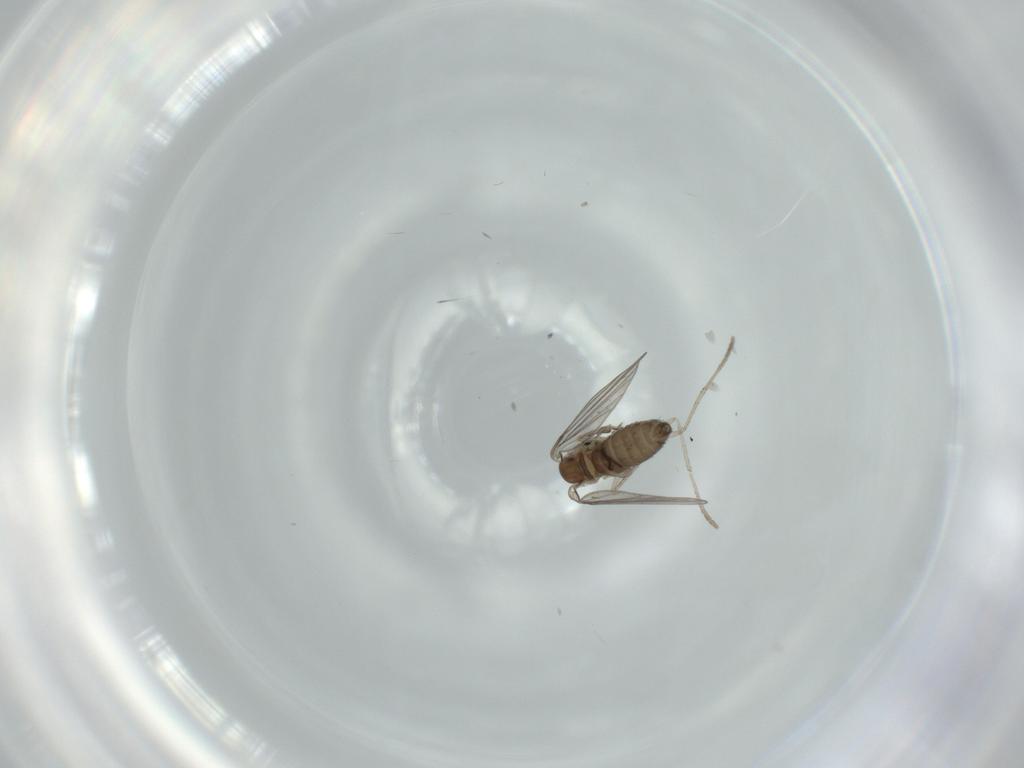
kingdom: Animalia
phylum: Arthropoda
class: Insecta
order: Diptera
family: Psychodidae
